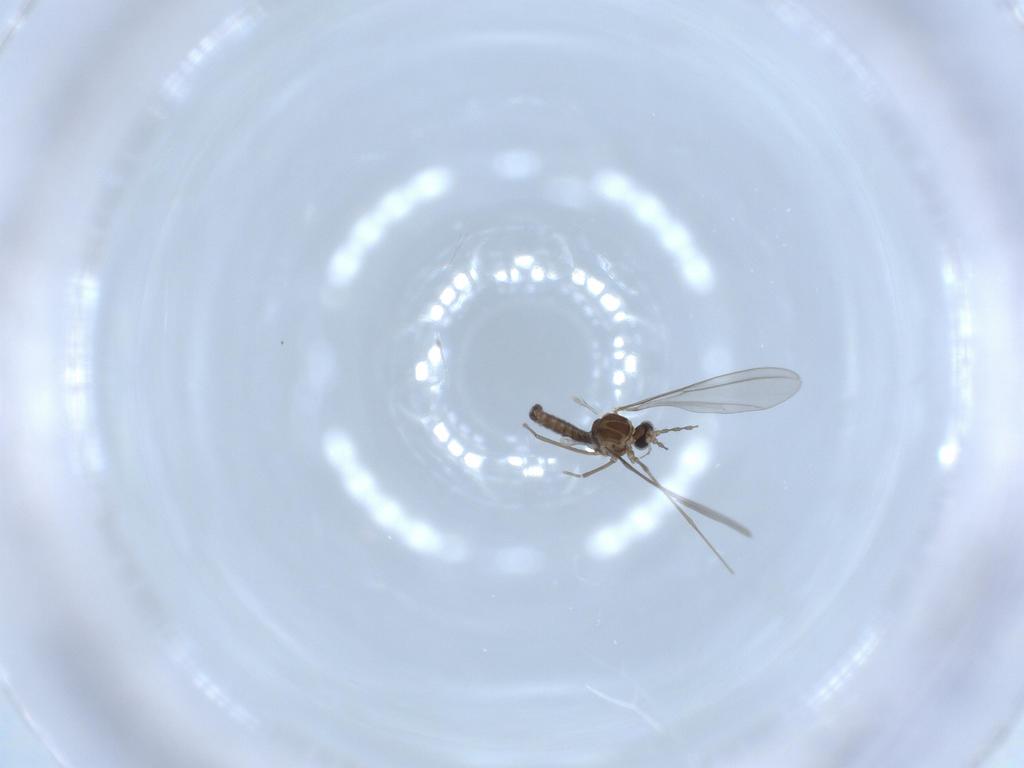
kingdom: Animalia
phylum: Arthropoda
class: Insecta
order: Diptera
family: Cecidomyiidae
